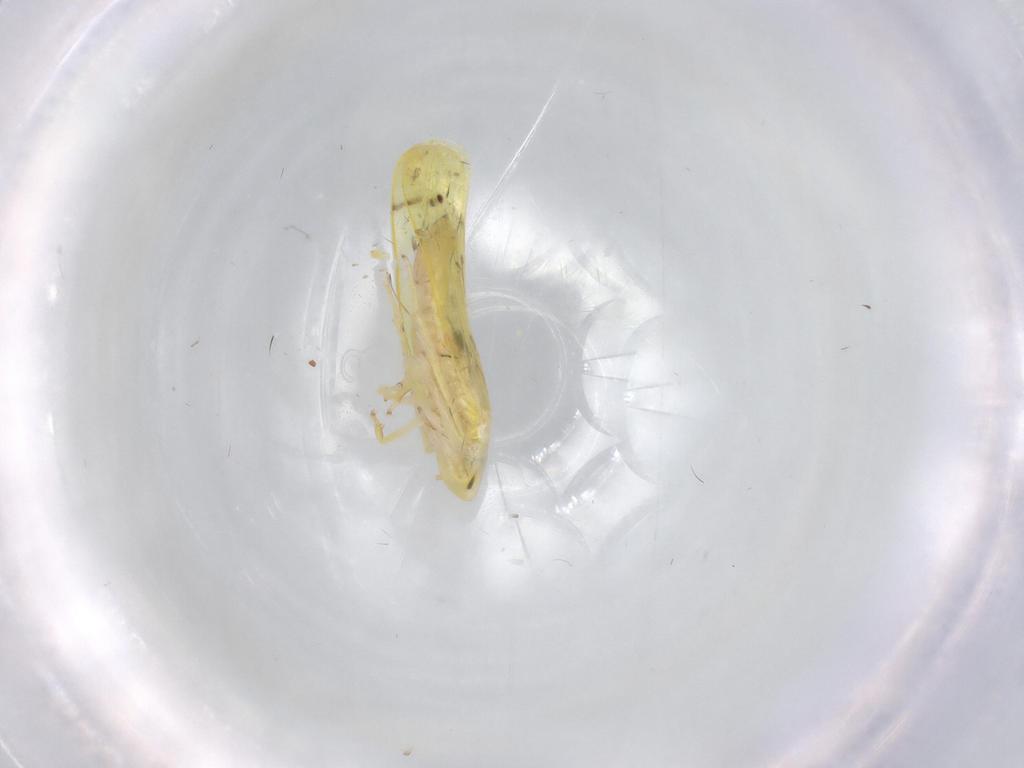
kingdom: Animalia
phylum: Arthropoda
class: Insecta
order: Hemiptera
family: Cicadellidae
